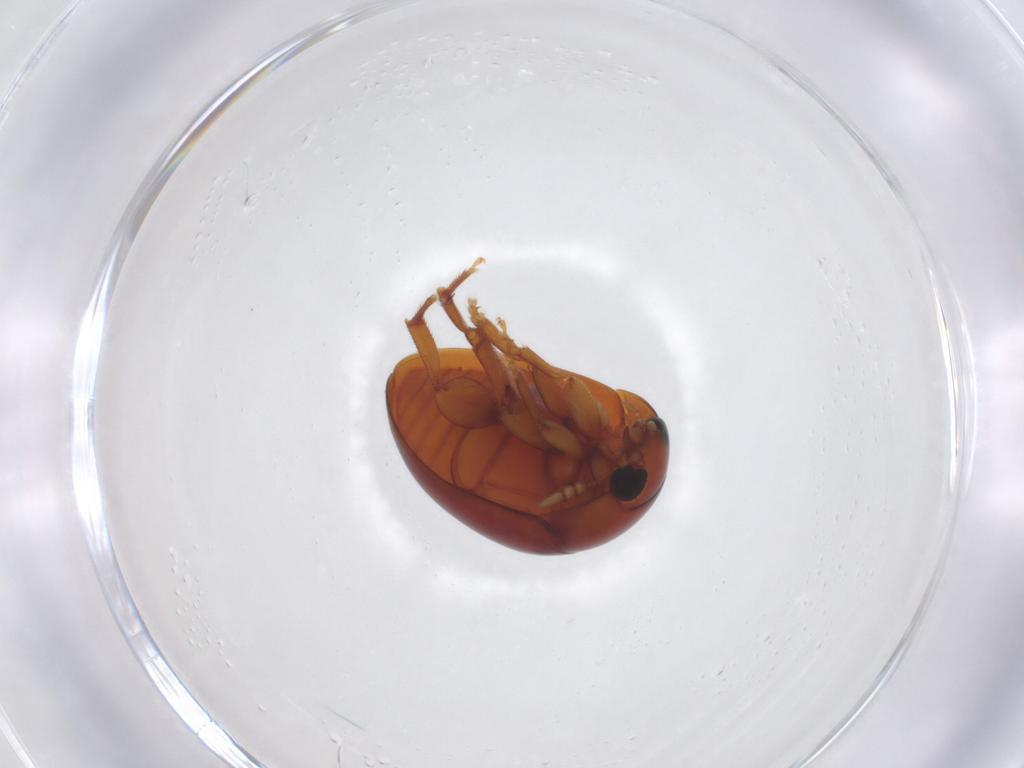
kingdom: Animalia
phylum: Arthropoda
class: Insecta
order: Coleoptera
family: Phalacridae
